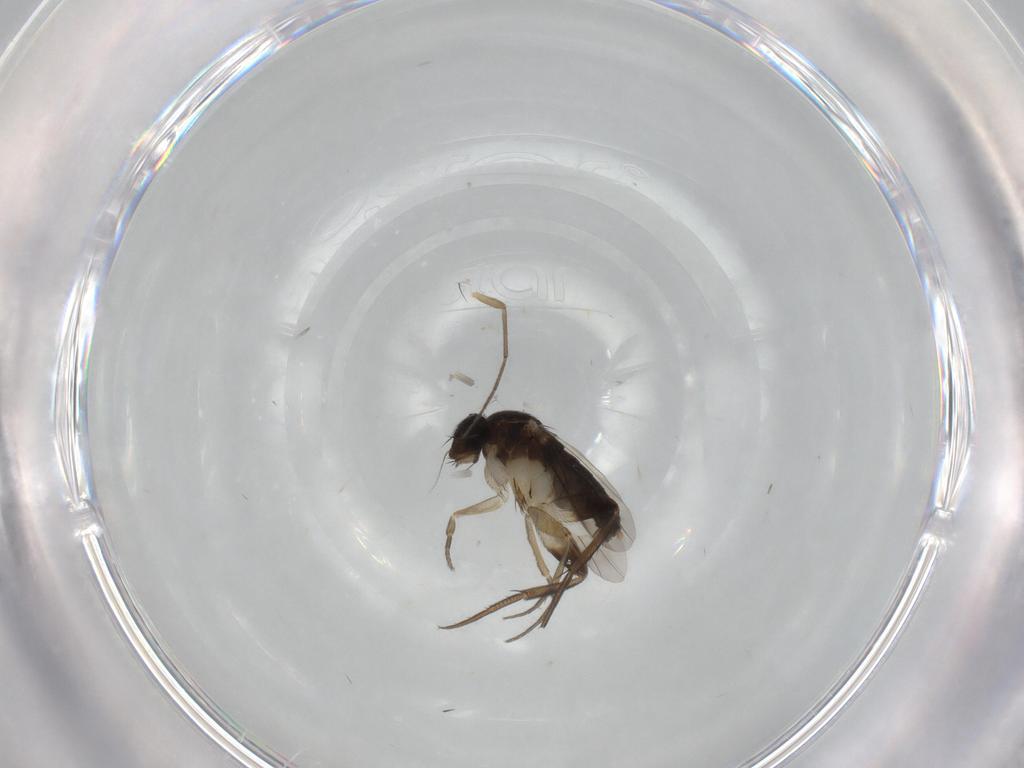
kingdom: Animalia
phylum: Arthropoda
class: Insecta
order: Diptera
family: Phoridae
